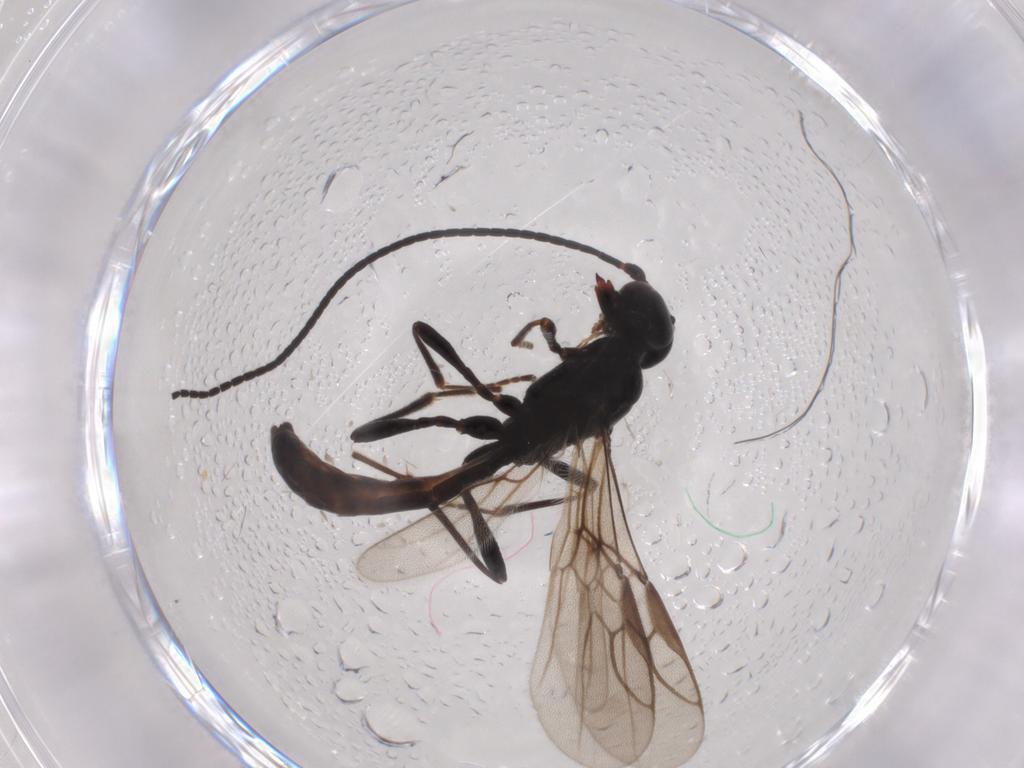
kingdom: Animalia
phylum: Arthropoda
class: Insecta
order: Hymenoptera
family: Braconidae
